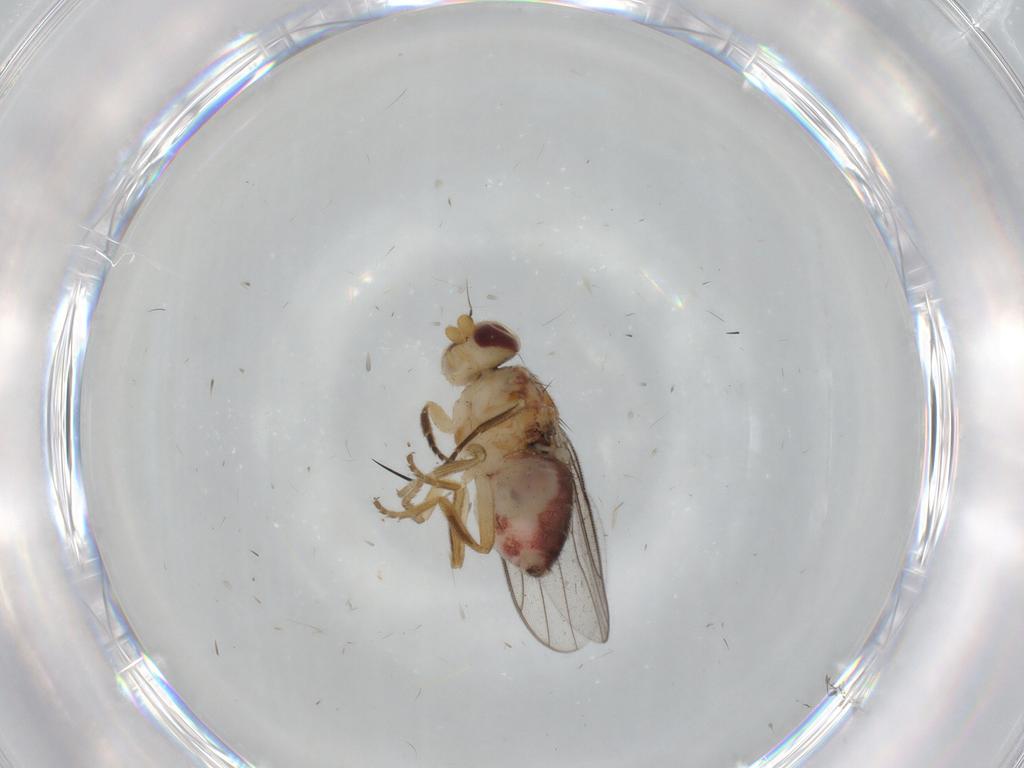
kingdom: Animalia
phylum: Arthropoda
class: Insecta
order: Diptera
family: Chloropidae
